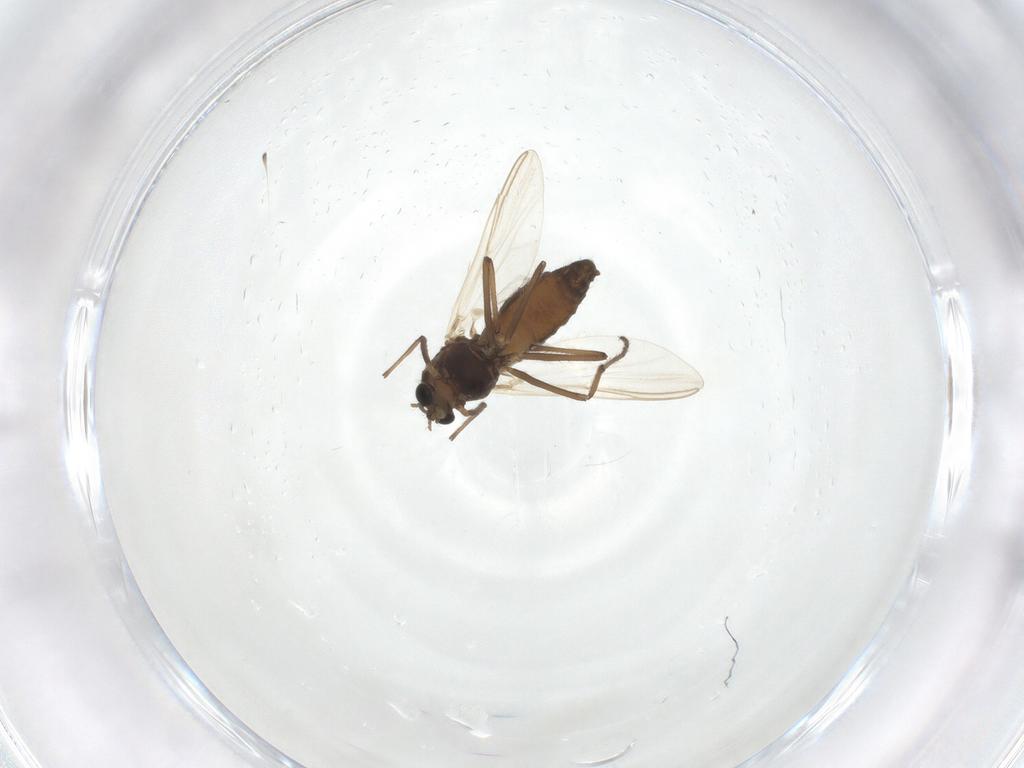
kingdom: Animalia
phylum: Arthropoda
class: Insecta
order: Diptera
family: Chironomidae
